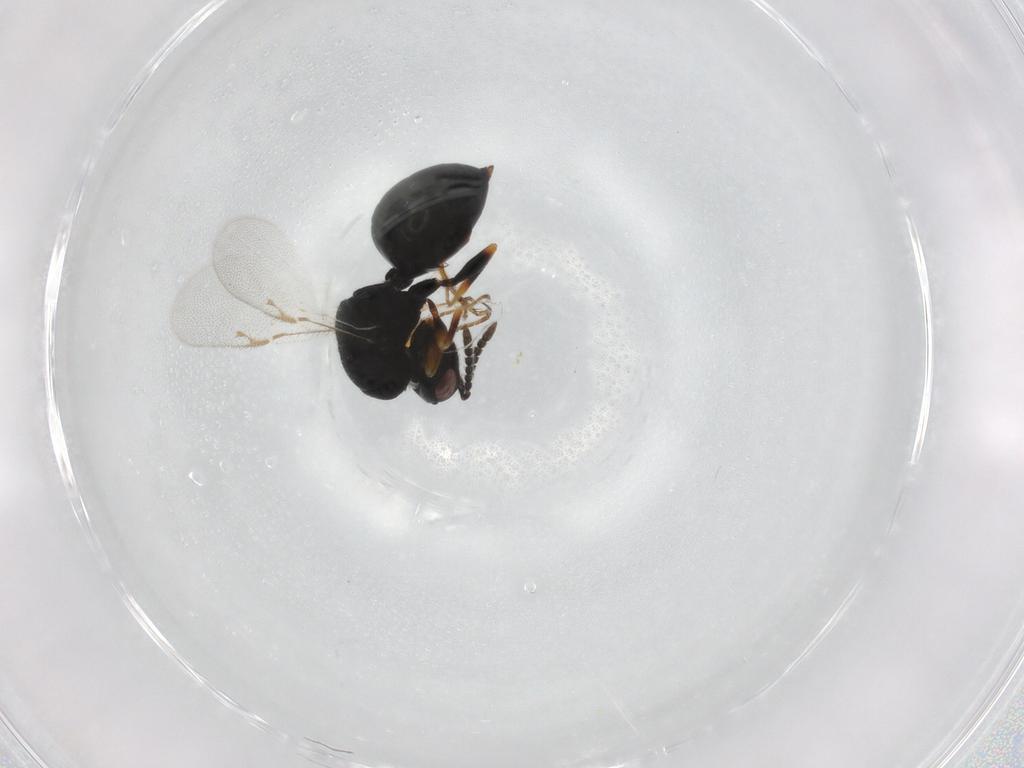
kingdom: Animalia
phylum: Arthropoda
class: Insecta
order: Hymenoptera
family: Eurytomidae
